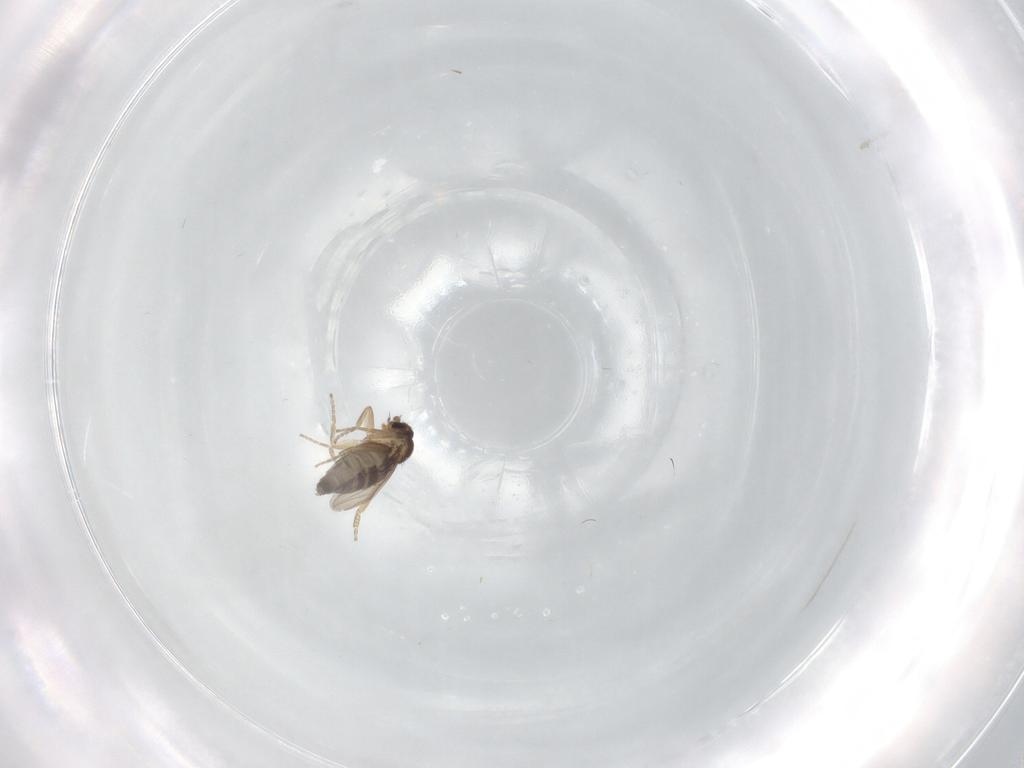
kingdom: Animalia
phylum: Arthropoda
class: Insecta
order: Diptera
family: Phoridae
